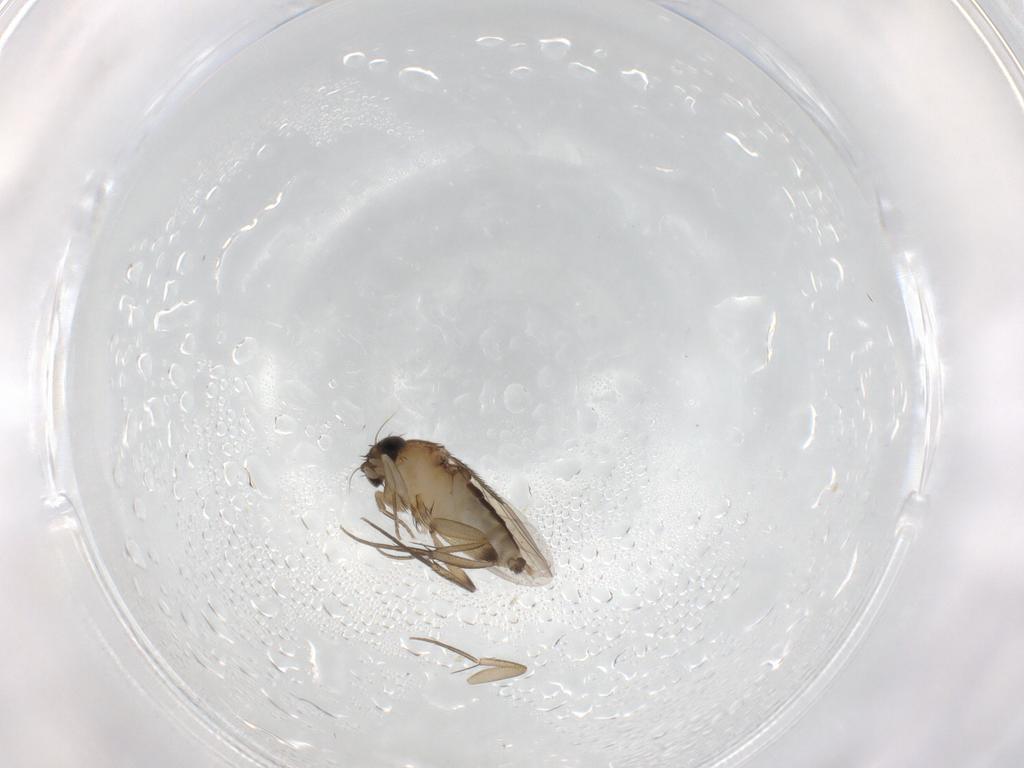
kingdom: Animalia
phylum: Arthropoda
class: Insecta
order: Diptera
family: Phoridae
